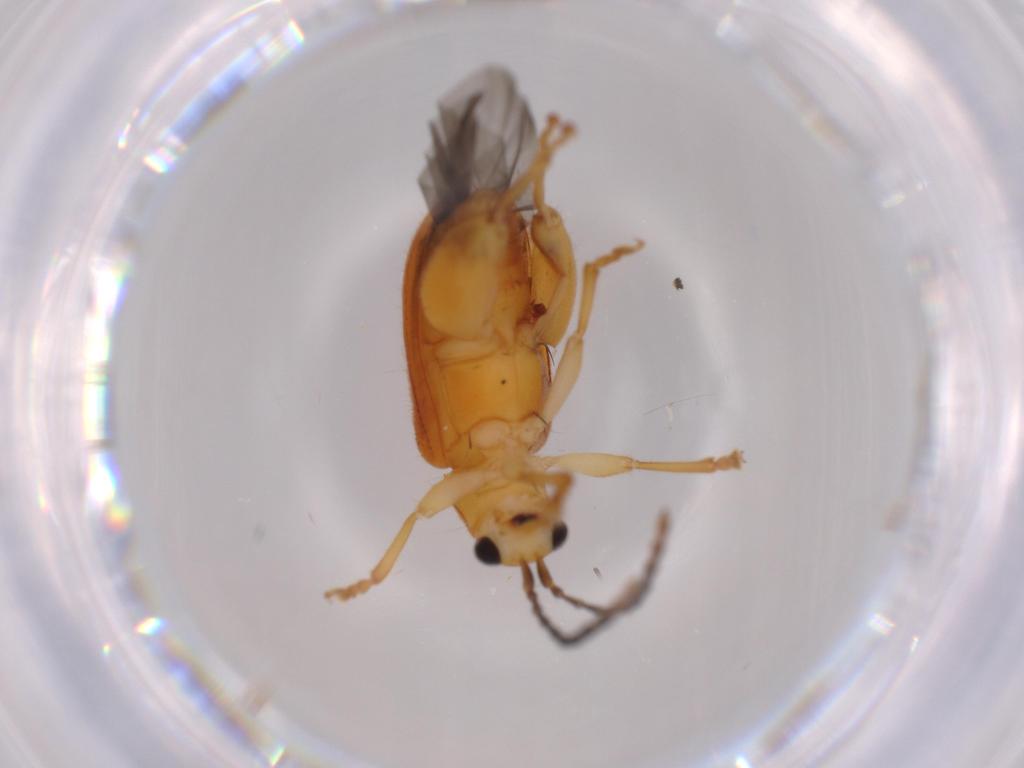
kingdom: Animalia
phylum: Arthropoda
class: Insecta
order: Coleoptera
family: Chrysomelidae
